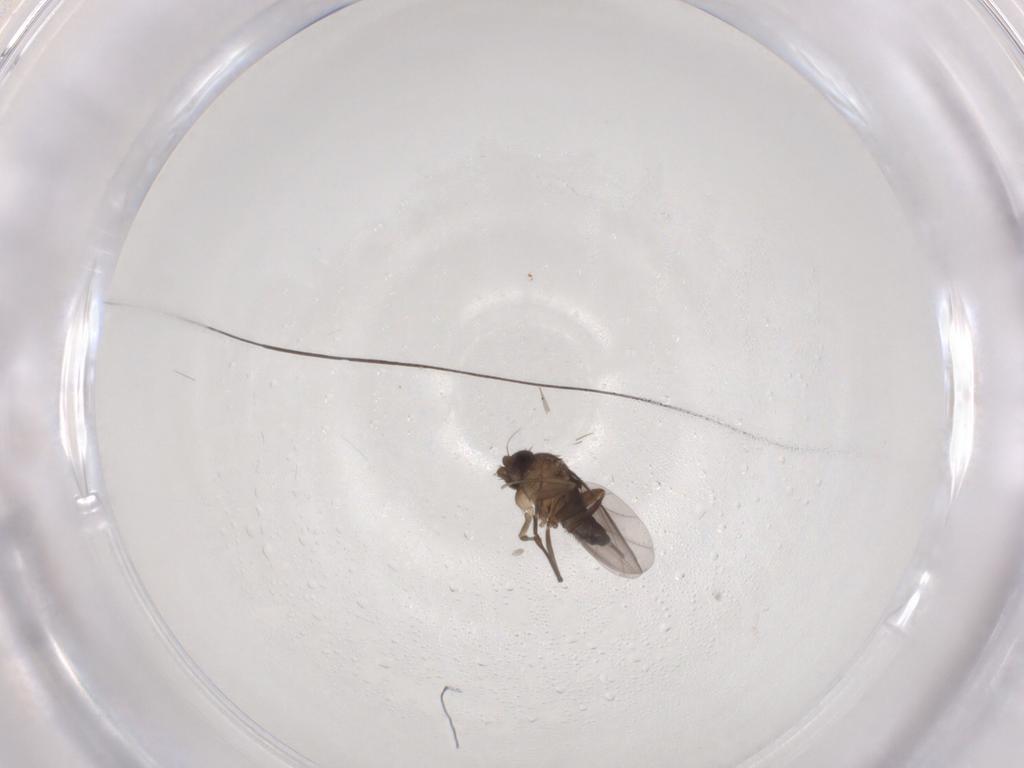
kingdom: Animalia
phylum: Arthropoda
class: Insecta
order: Diptera
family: Phoridae
